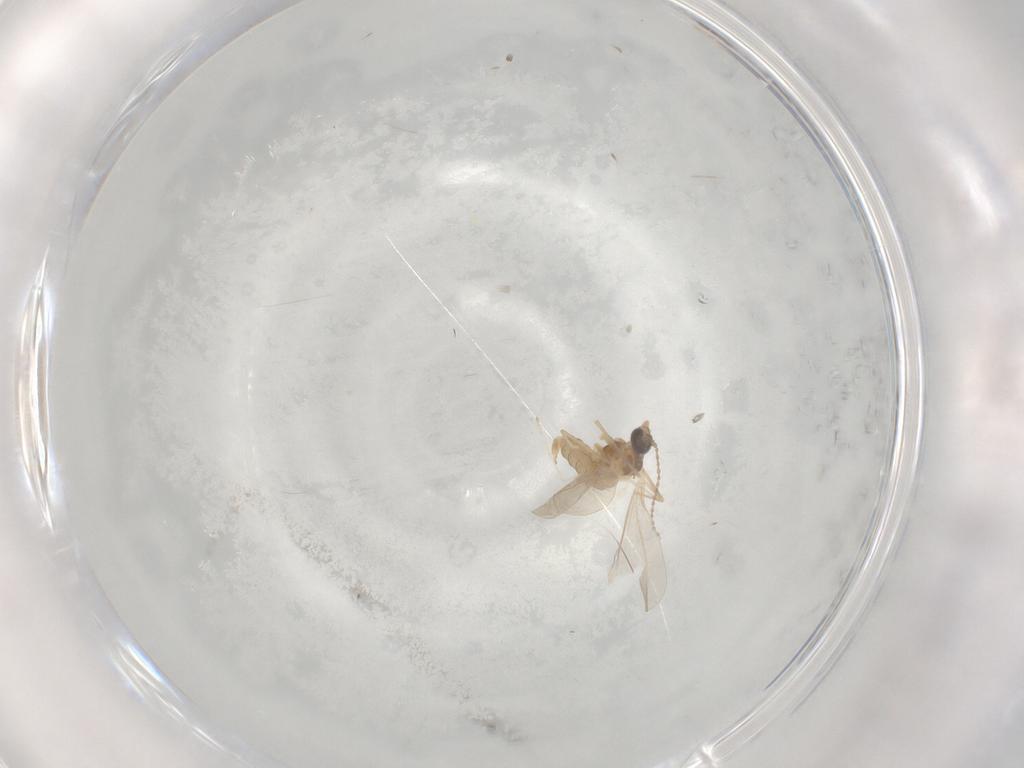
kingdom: Animalia
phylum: Arthropoda
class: Insecta
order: Diptera
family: Cecidomyiidae
